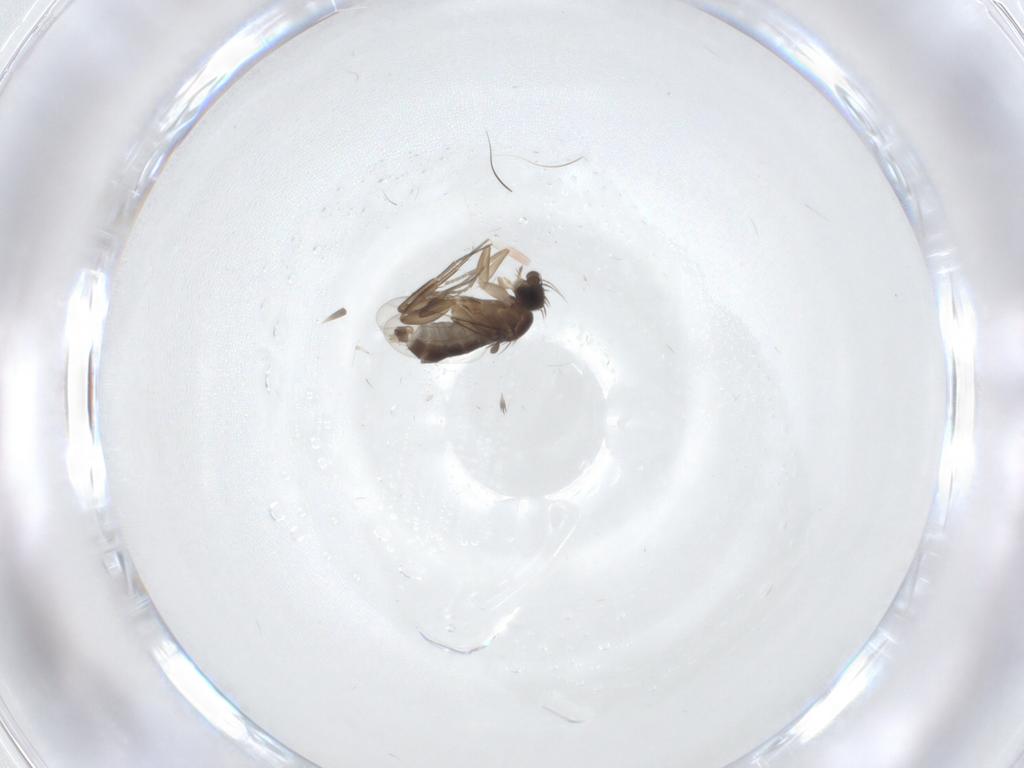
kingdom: Animalia
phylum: Arthropoda
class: Insecta
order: Diptera
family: Phoridae
